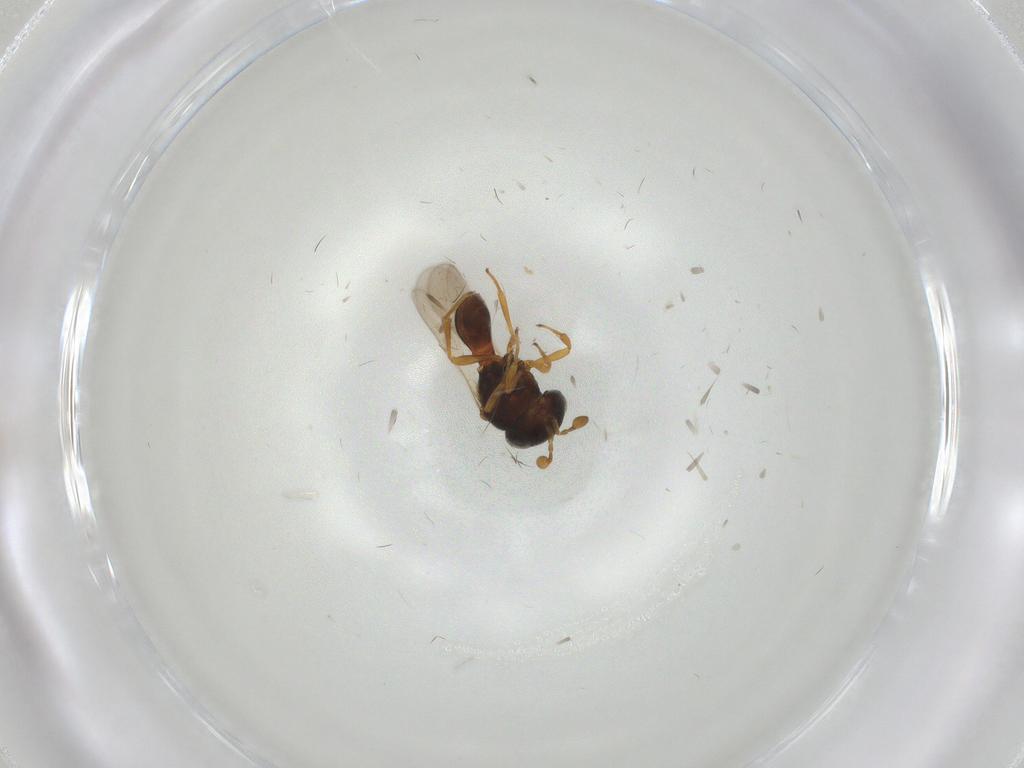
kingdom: Animalia
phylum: Arthropoda
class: Insecta
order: Hymenoptera
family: Scelionidae
